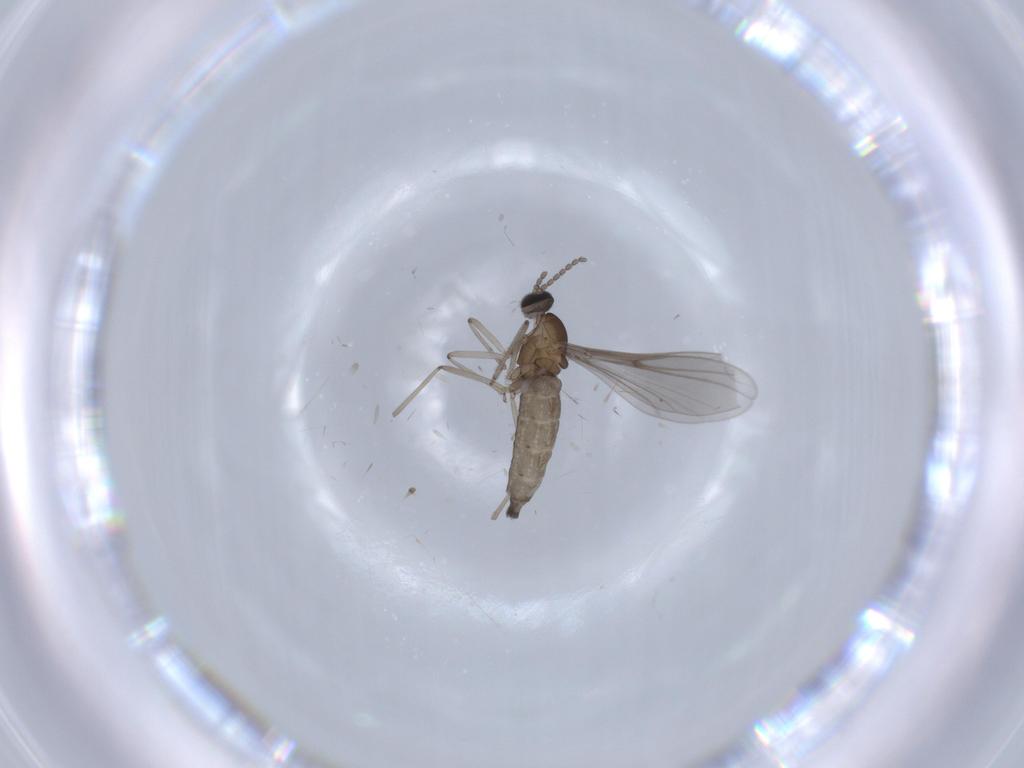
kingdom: Animalia
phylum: Arthropoda
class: Insecta
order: Diptera
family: Cecidomyiidae
